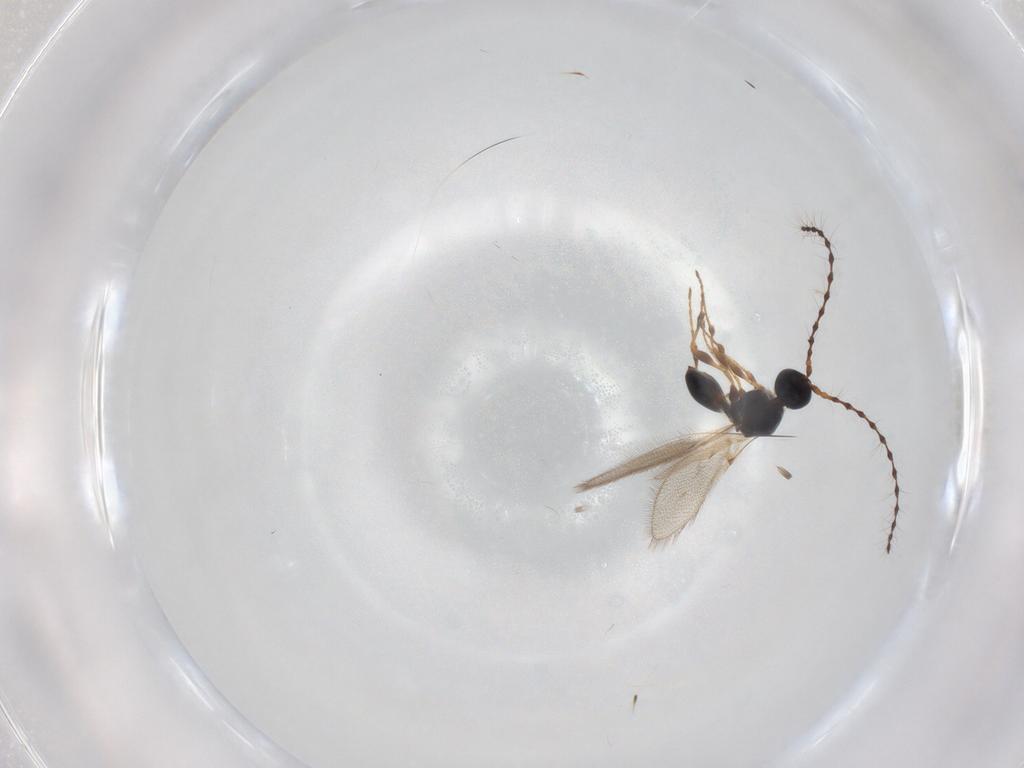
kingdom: Animalia
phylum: Arthropoda
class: Insecta
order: Hymenoptera
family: Diapriidae
